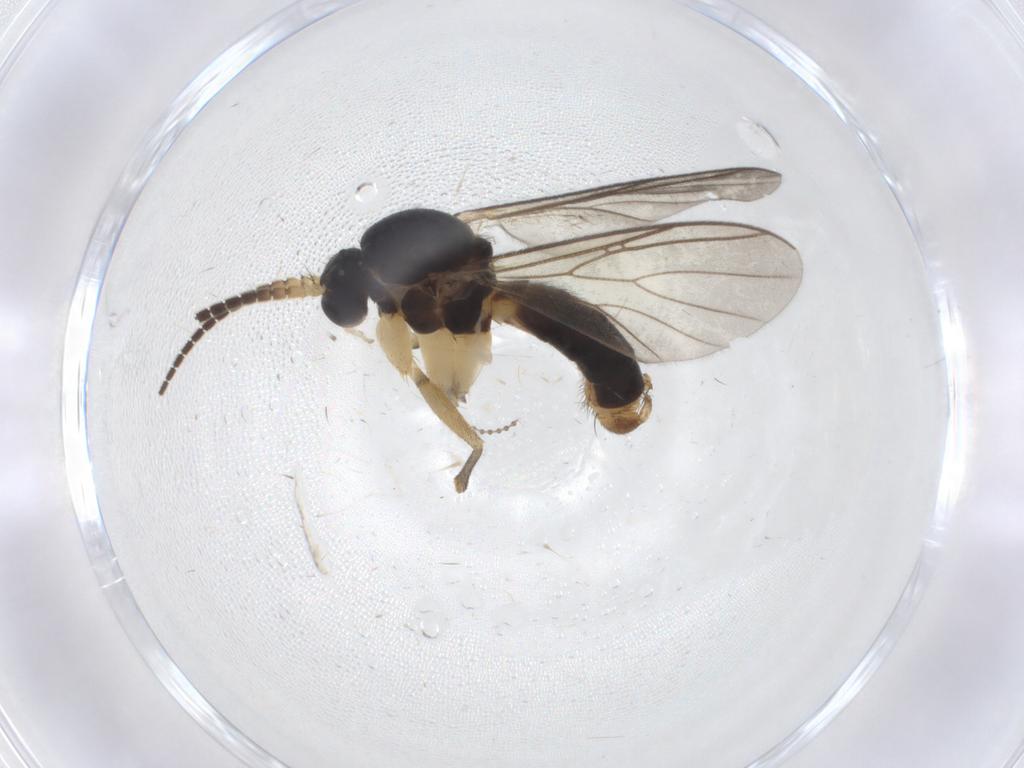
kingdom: Animalia
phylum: Arthropoda
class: Insecta
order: Diptera
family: Mycetophilidae
